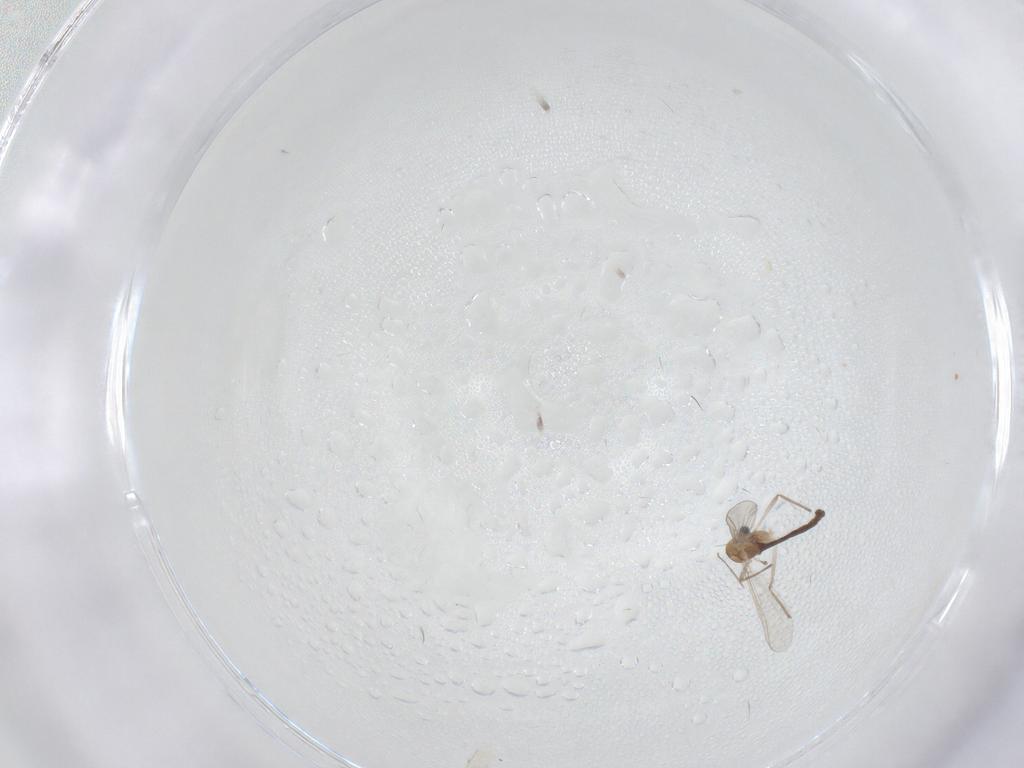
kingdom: Animalia
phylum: Arthropoda
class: Insecta
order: Diptera
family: Cecidomyiidae
